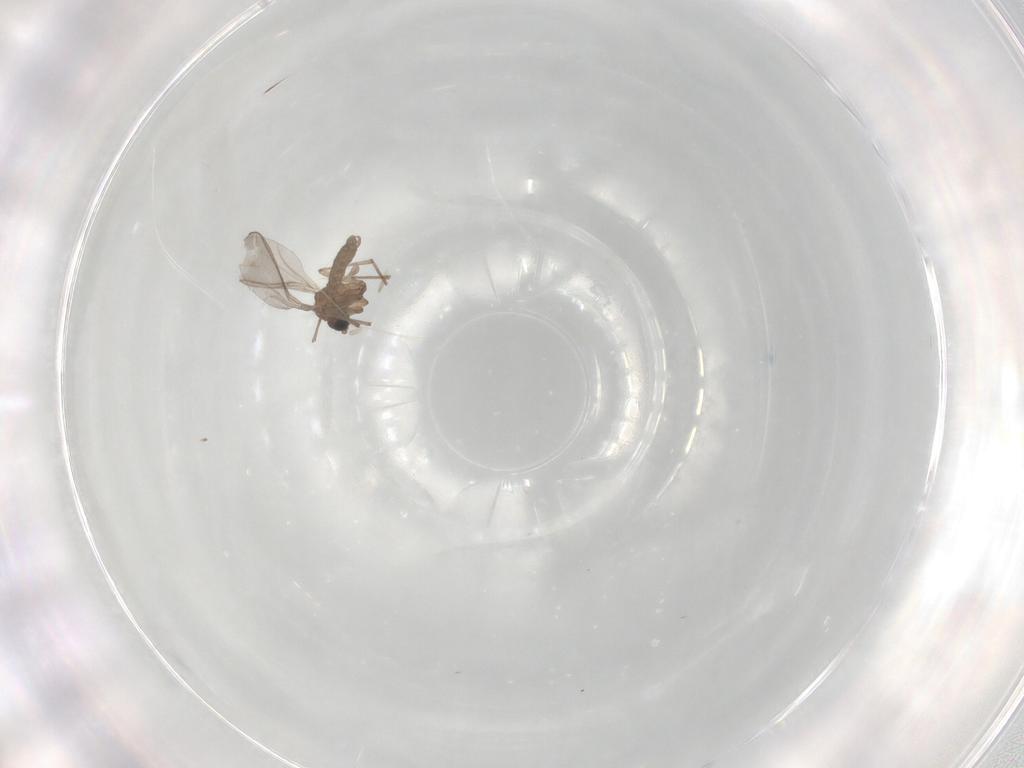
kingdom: Animalia
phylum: Arthropoda
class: Insecta
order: Diptera
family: Sciaridae
